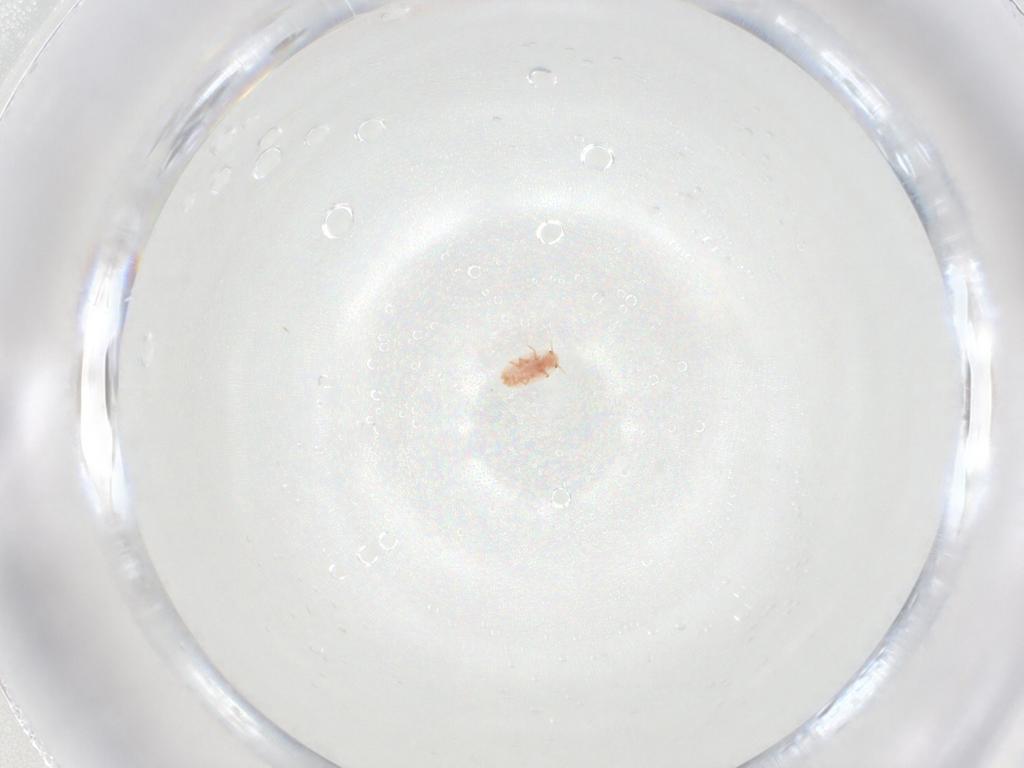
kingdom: Animalia
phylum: Arthropoda
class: Insecta
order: Hemiptera
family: Coccidae
